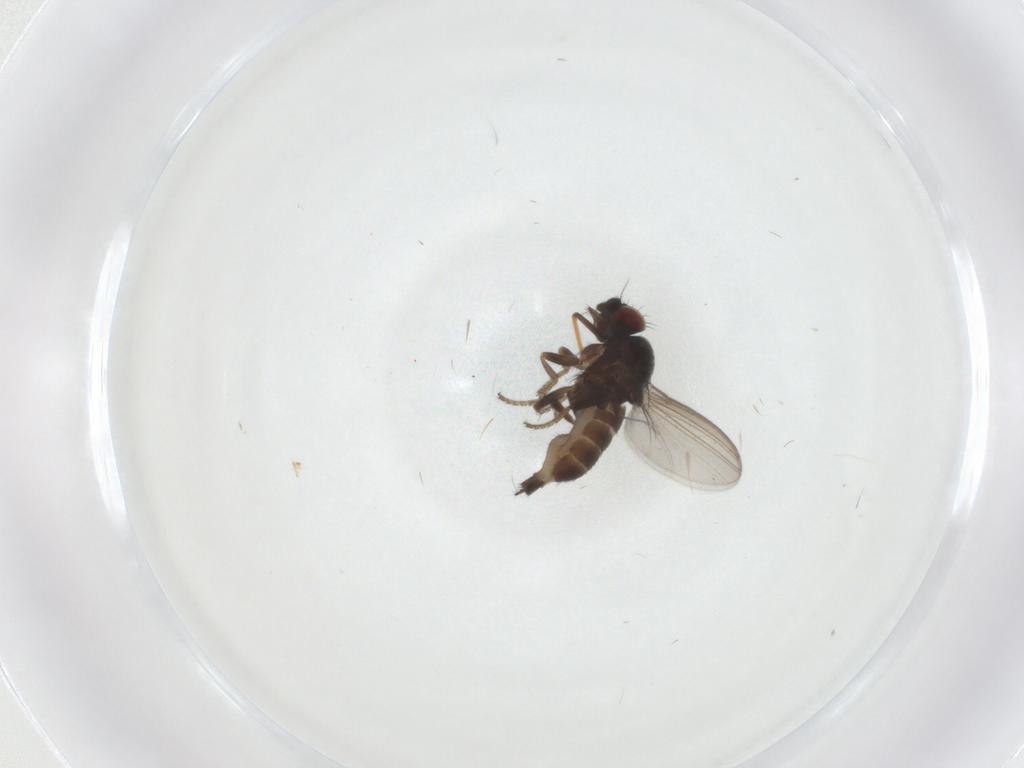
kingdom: Animalia
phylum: Arthropoda
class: Insecta
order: Diptera
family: Milichiidae
